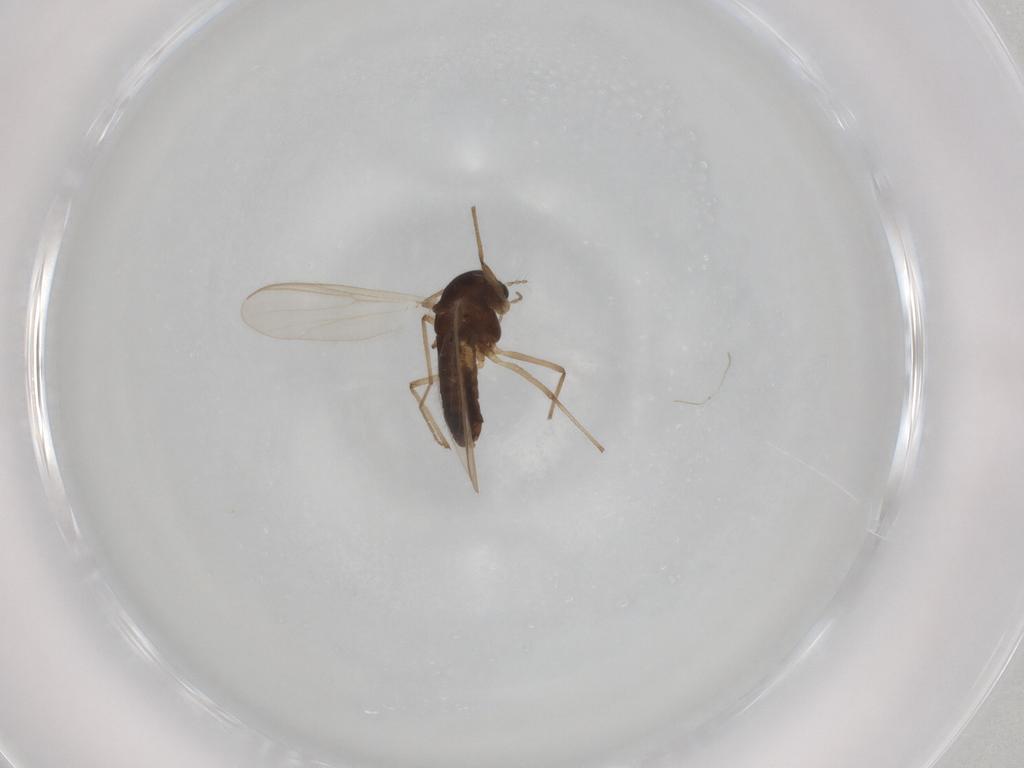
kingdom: Animalia
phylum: Arthropoda
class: Insecta
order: Diptera
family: Chironomidae
